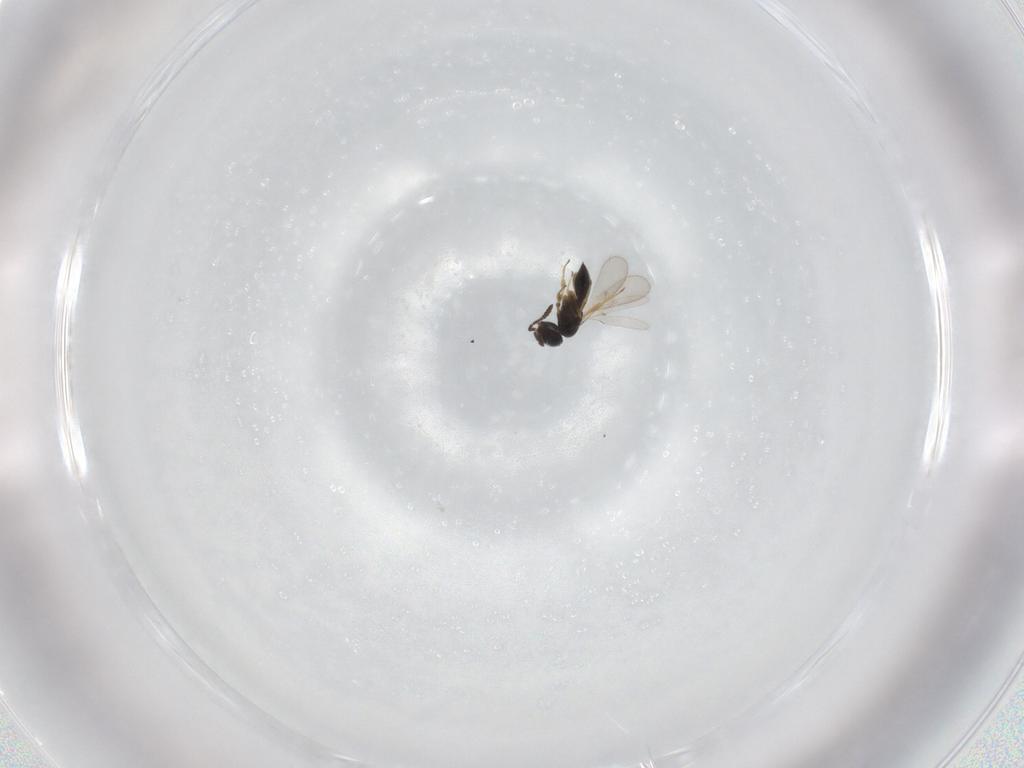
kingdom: Animalia
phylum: Arthropoda
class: Insecta
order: Hymenoptera
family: Scelionidae
